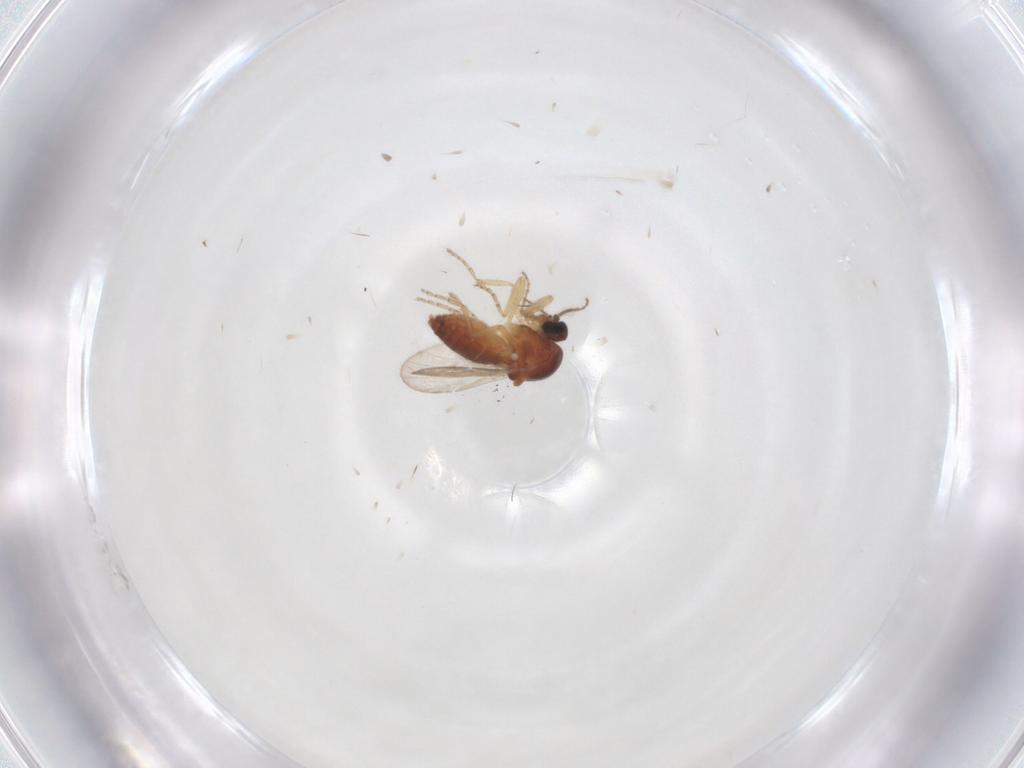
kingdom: Animalia
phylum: Arthropoda
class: Insecta
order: Diptera
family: Ceratopogonidae
